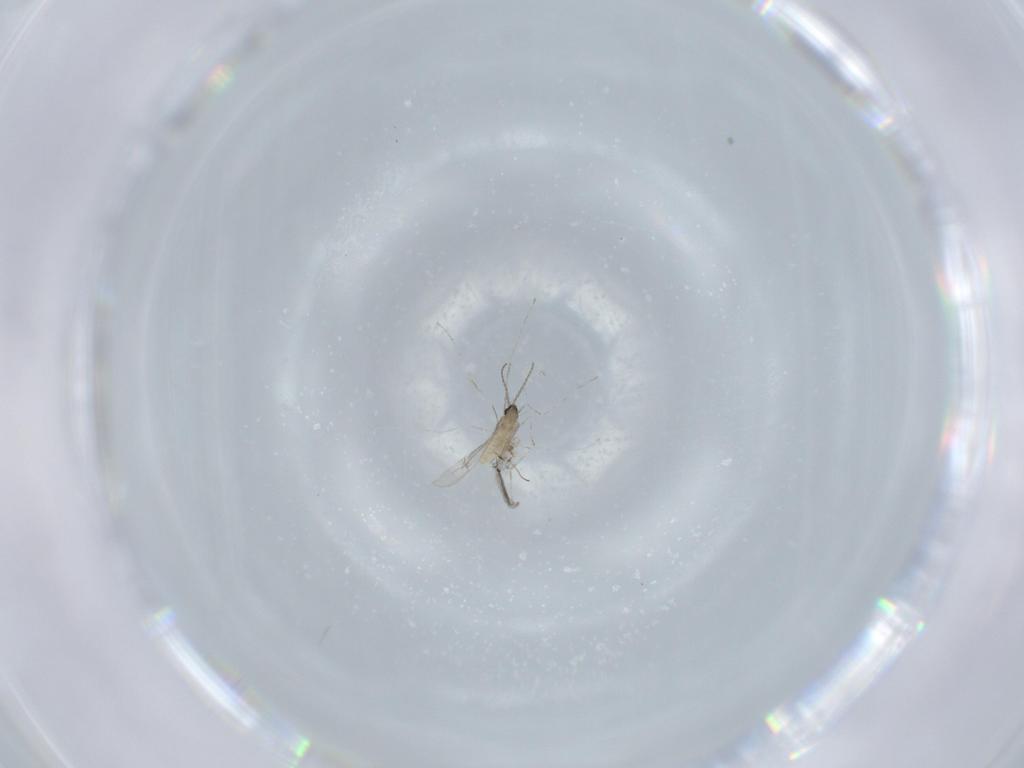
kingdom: Animalia
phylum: Arthropoda
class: Insecta
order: Diptera
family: Cecidomyiidae
